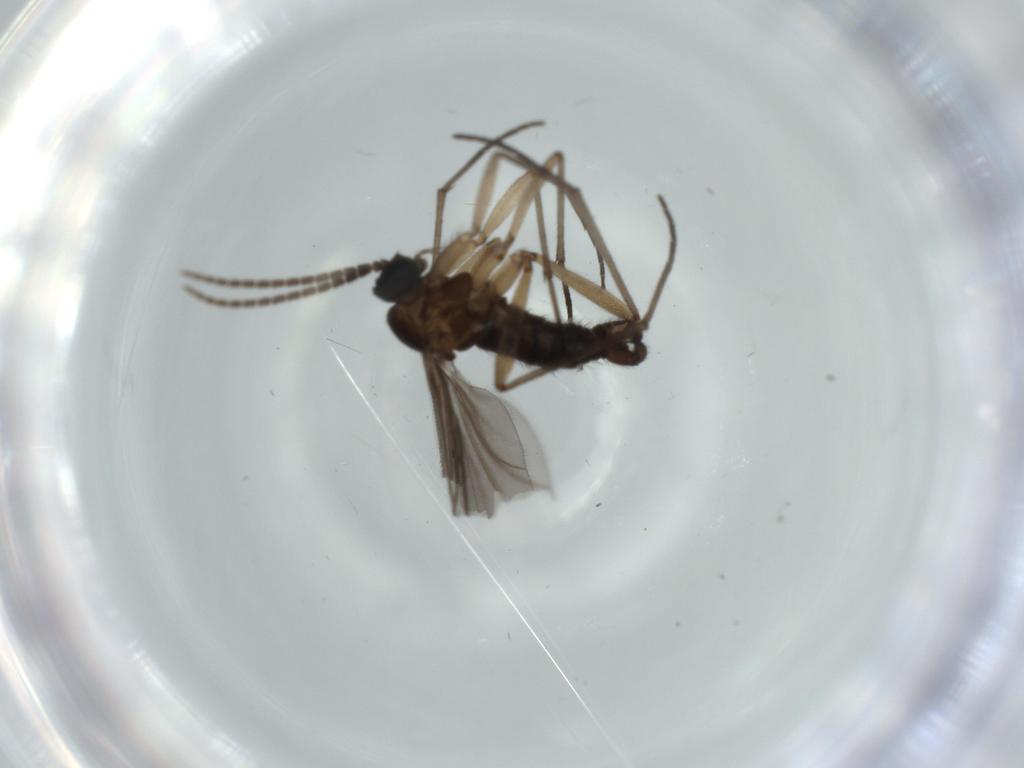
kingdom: Animalia
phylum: Arthropoda
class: Insecta
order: Diptera
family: Sciaridae
